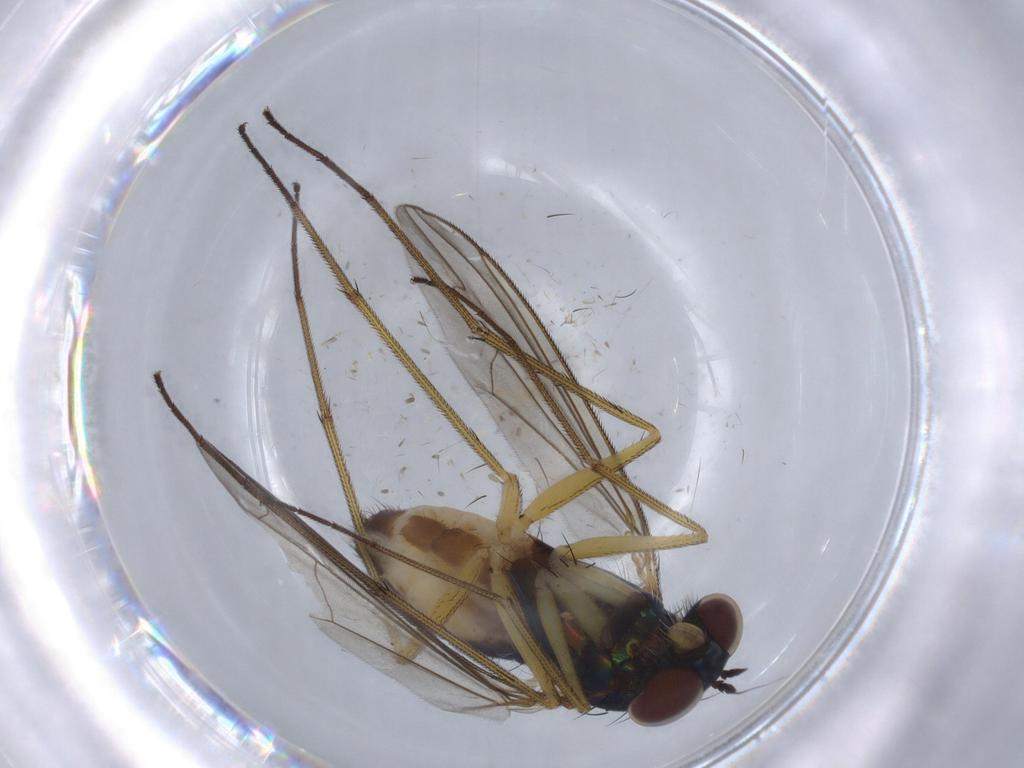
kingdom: Animalia
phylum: Arthropoda
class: Insecta
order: Diptera
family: Dolichopodidae
